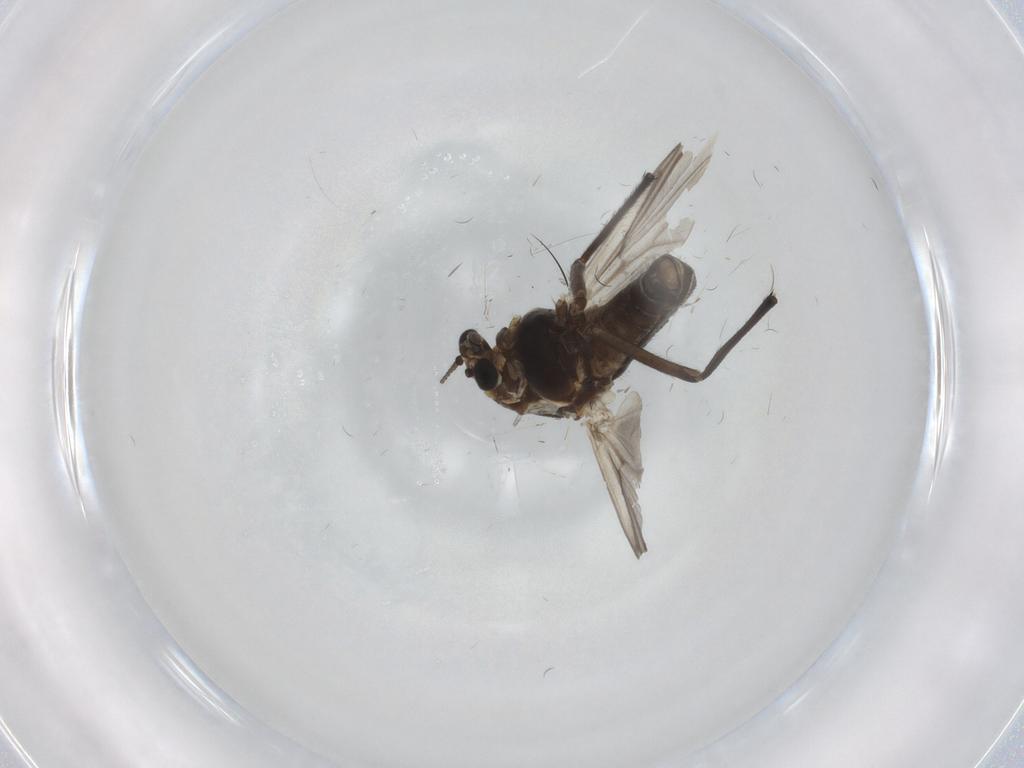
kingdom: Animalia
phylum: Arthropoda
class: Insecta
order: Diptera
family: Chironomidae
